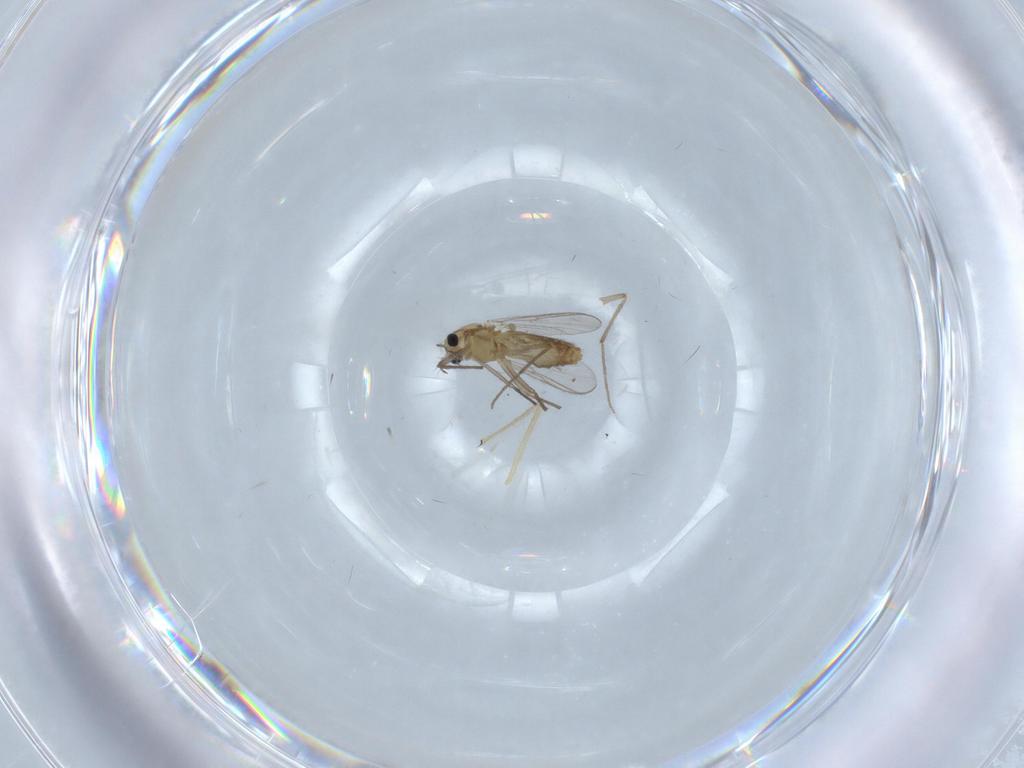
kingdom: Animalia
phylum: Arthropoda
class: Insecta
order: Diptera
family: Chironomidae
